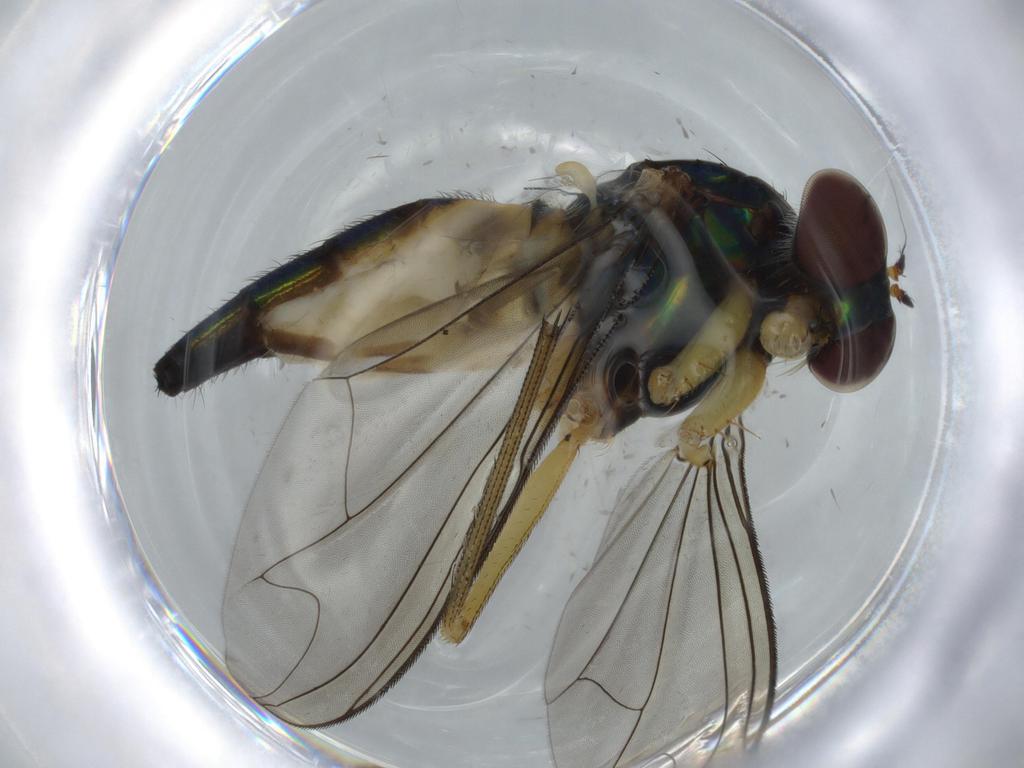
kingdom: Animalia
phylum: Arthropoda
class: Insecta
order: Diptera
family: Dolichopodidae
